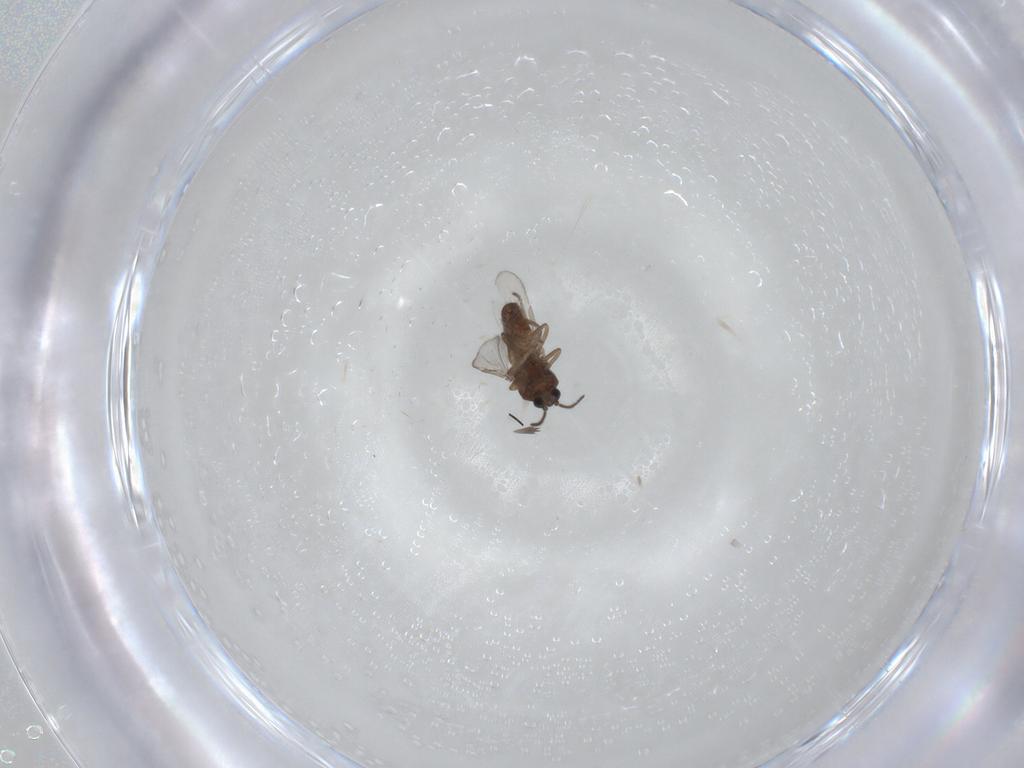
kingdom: Animalia
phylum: Arthropoda
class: Insecta
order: Diptera
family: Ceratopogonidae
